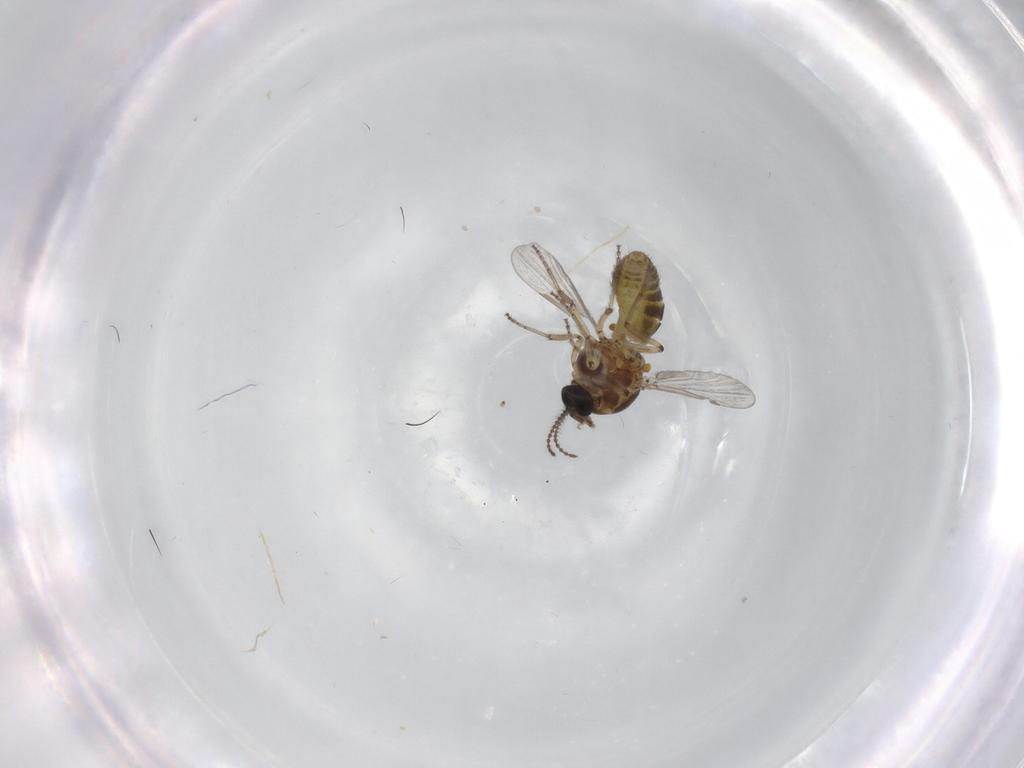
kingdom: Animalia
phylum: Arthropoda
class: Insecta
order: Diptera
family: Ceratopogonidae
